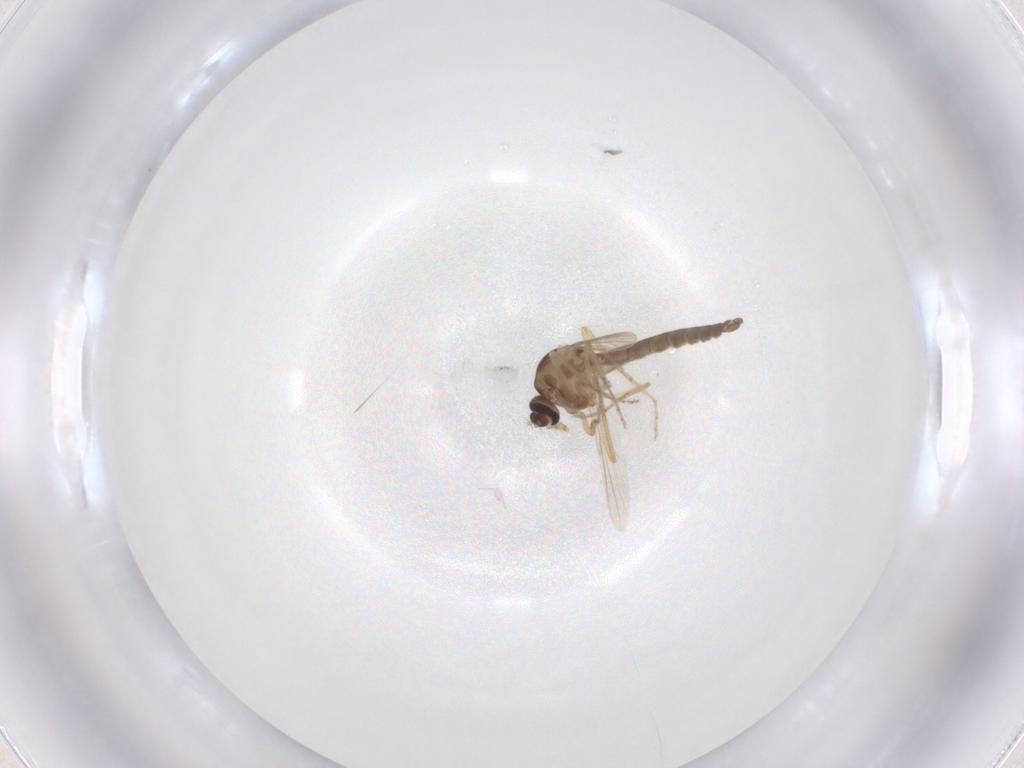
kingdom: Animalia
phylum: Arthropoda
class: Insecta
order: Diptera
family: Ceratopogonidae
